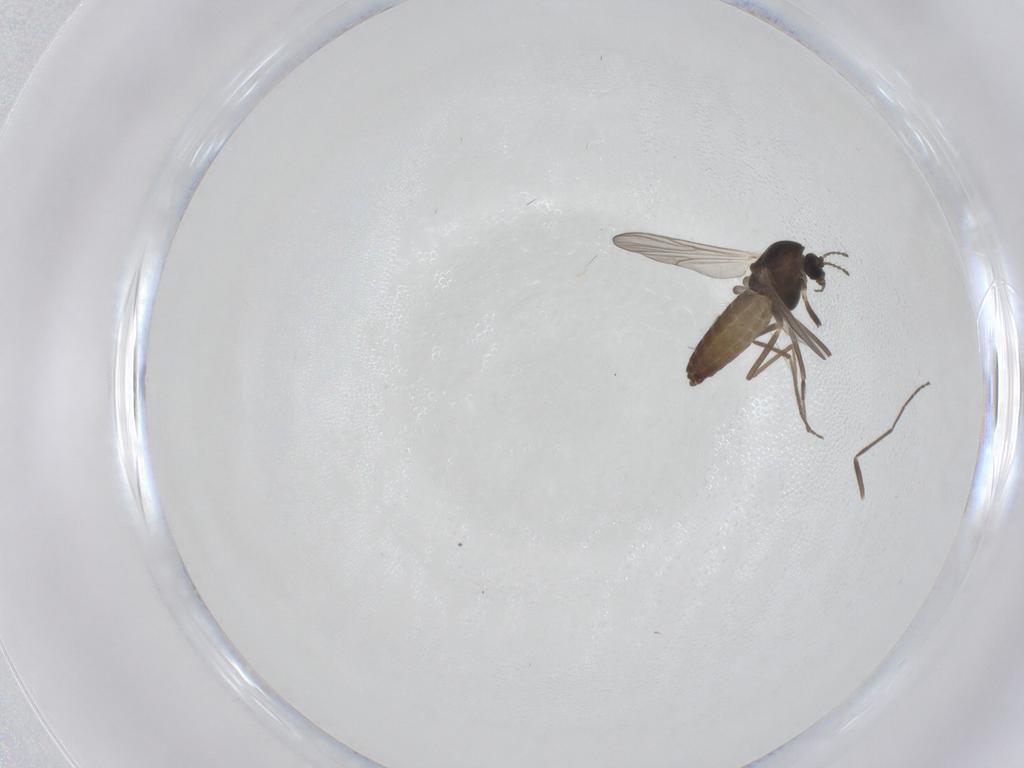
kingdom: Animalia
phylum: Arthropoda
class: Insecta
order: Diptera
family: Chironomidae
